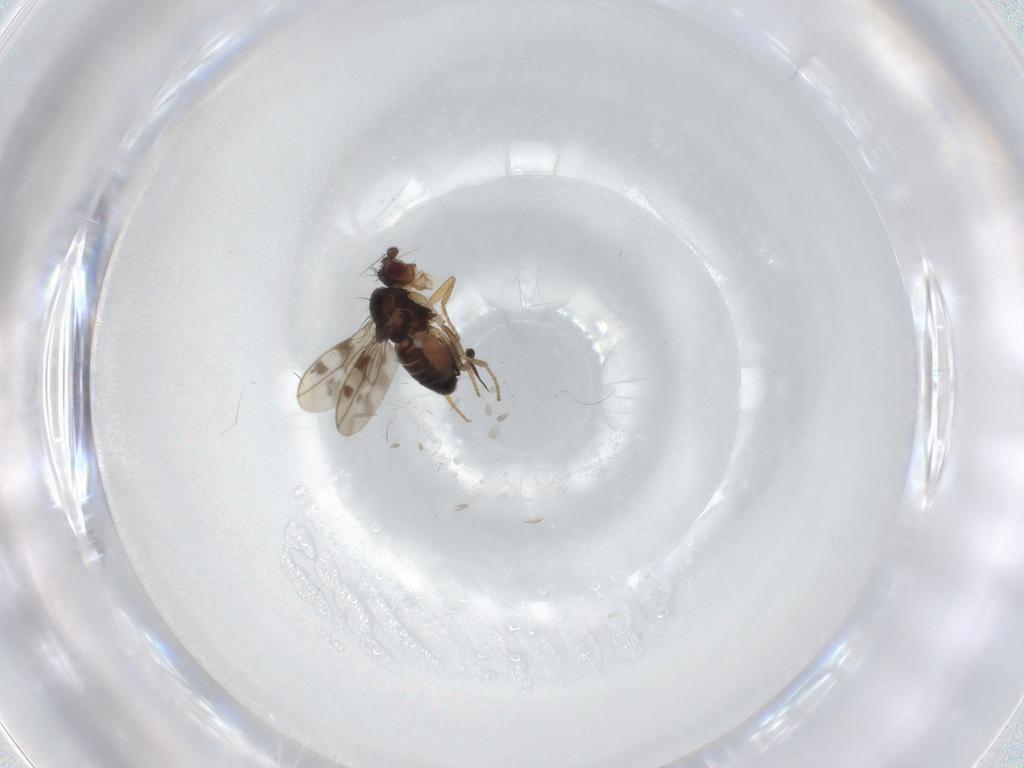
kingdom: Animalia
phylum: Arthropoda
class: Insecta
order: Diptera
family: Sphaeroceridae
